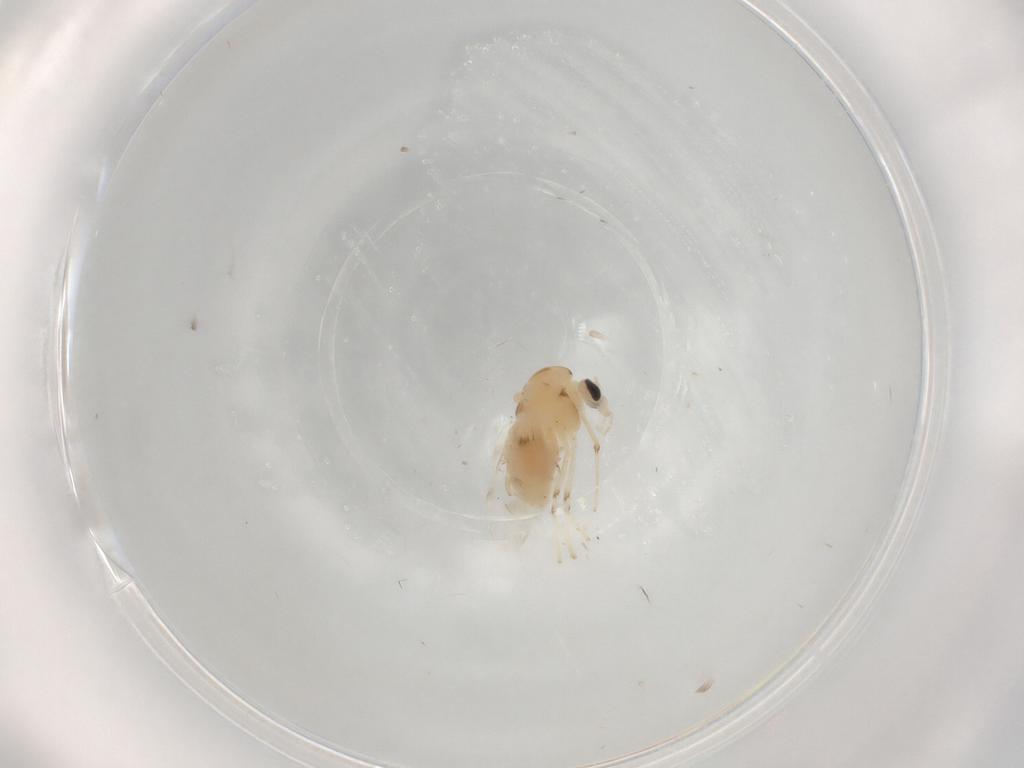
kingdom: Animalia
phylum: Arthropoda
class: Insecta
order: Diptera
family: Chironomidae
